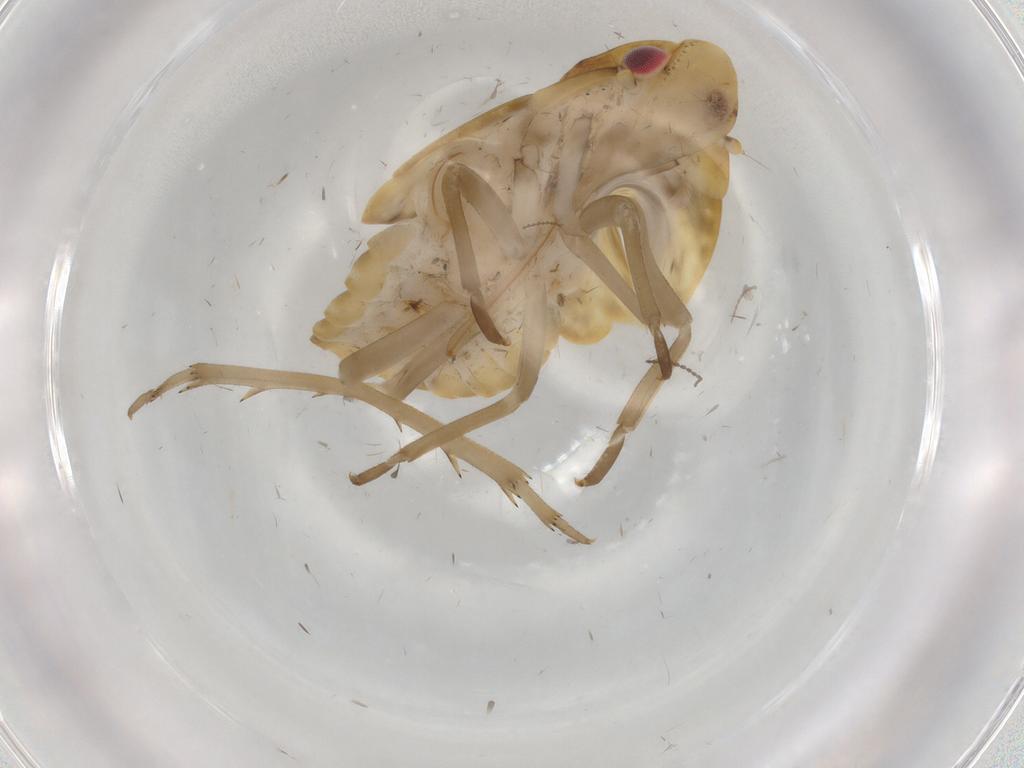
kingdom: Animalia
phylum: Arthropoda
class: Insecta
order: Hemiptera
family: Flatidae
